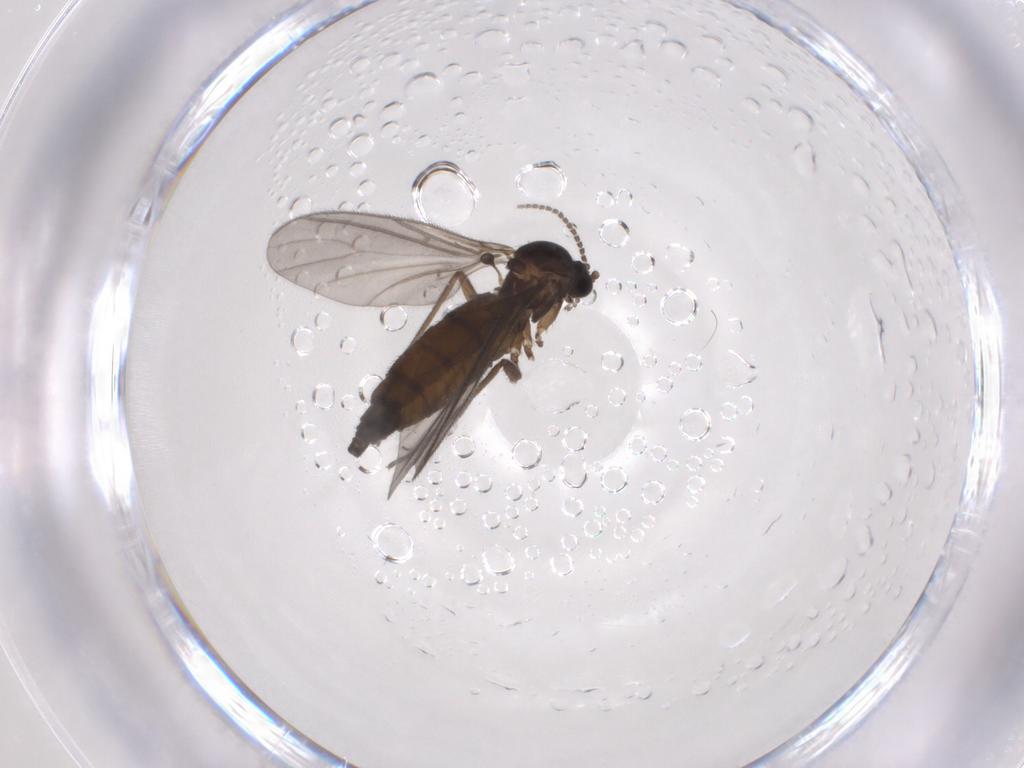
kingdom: Animalia
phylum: Arthropoda
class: Insecta
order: Diptera
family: Sciaridae
